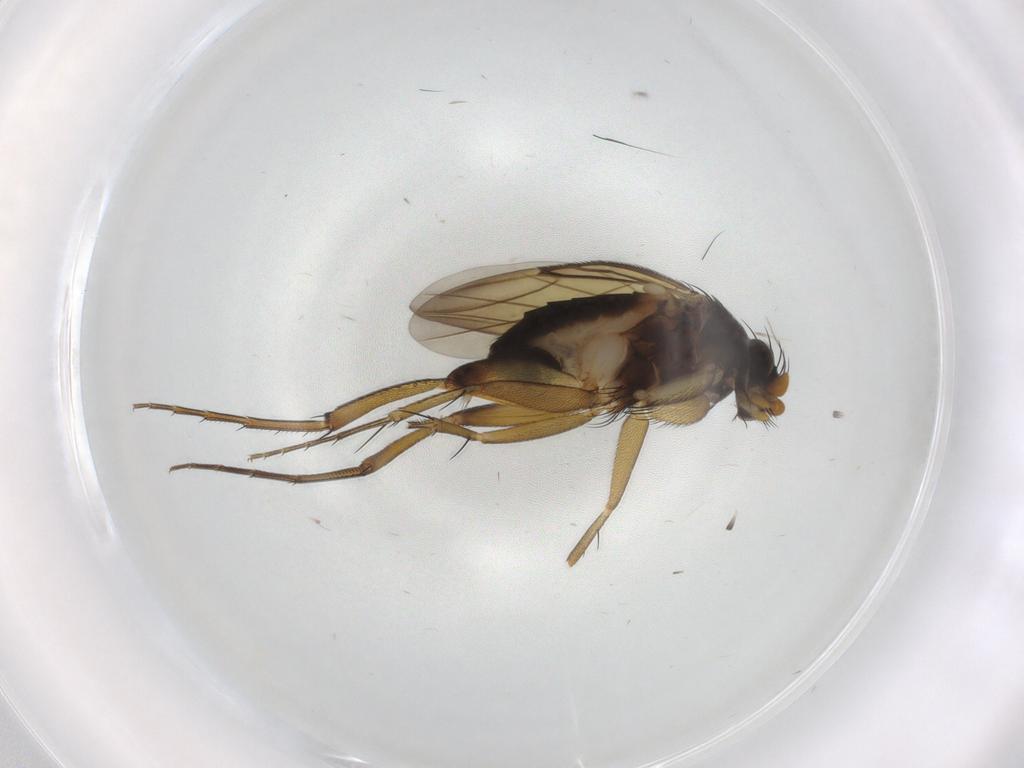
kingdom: Animalia
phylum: Arthropoda
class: Insecta
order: Diptera
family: Phoridae
